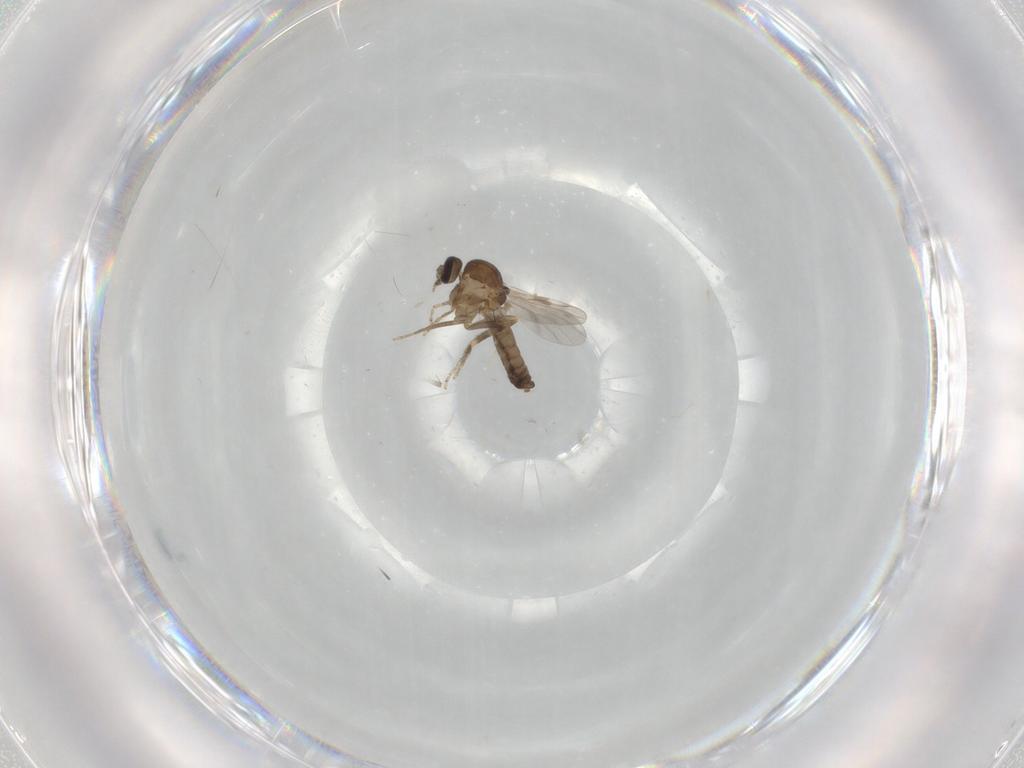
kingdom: Animalia
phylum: Arthropoda
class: Insecta
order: Diptera
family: Ceratopogonidae
